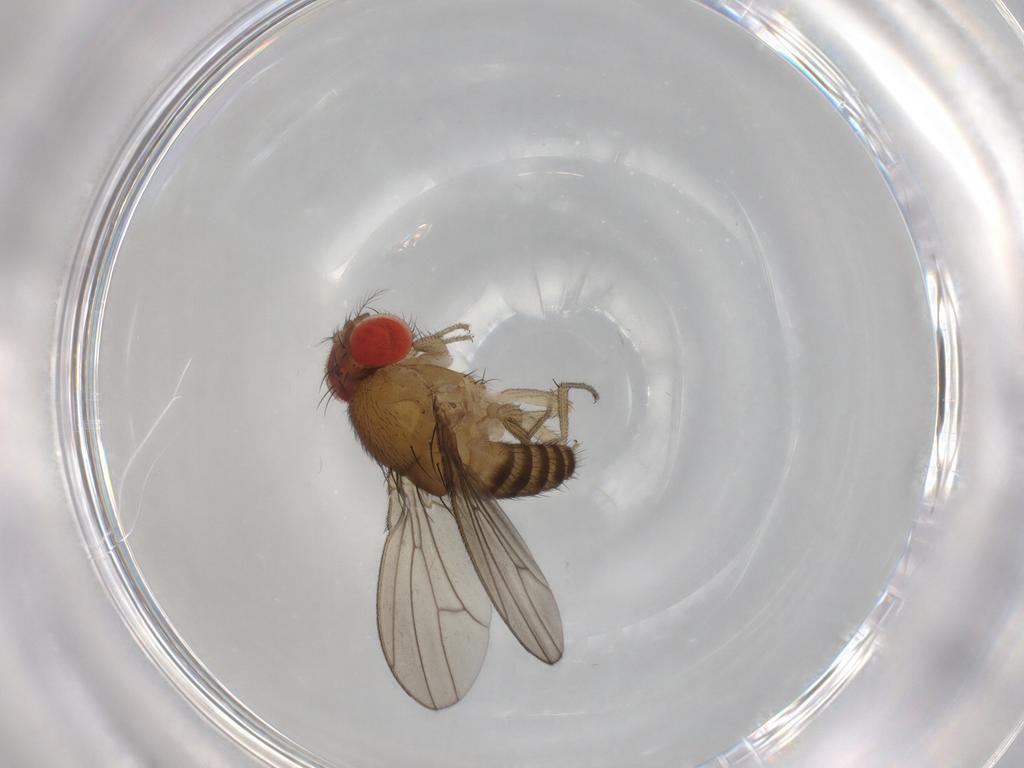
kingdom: Animalia
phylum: Arthropoda
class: Insecta
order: Diptera
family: Drosophilidae
